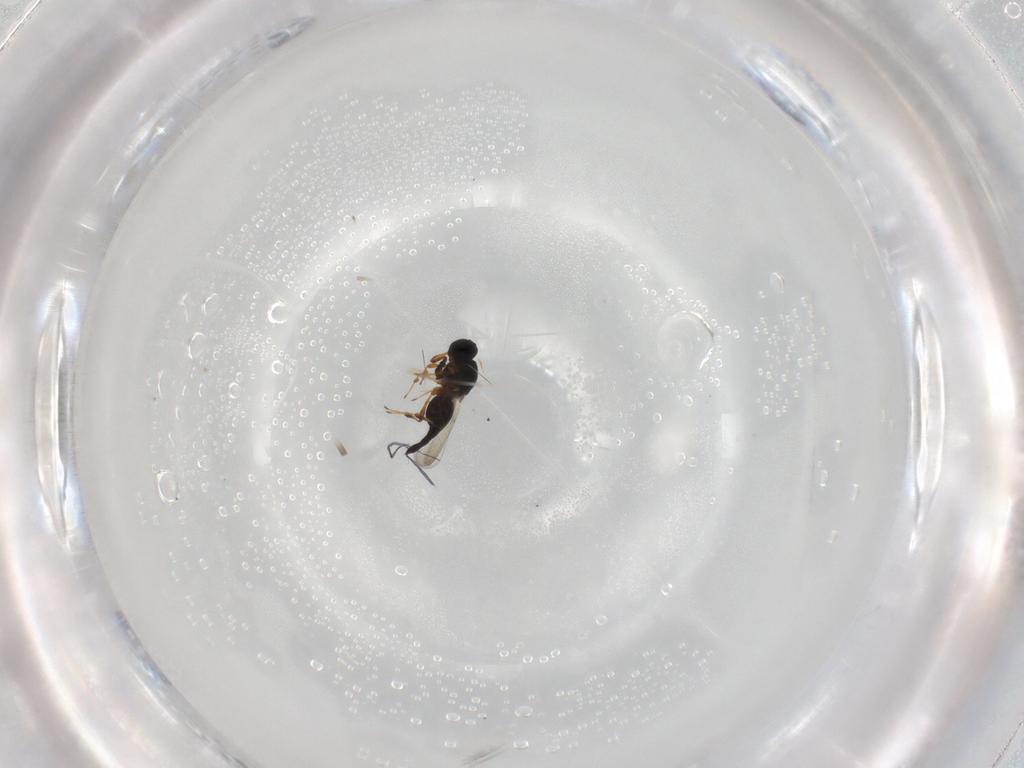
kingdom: Animalia
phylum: Arthropoda
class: Insecta
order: Hymenoptera
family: Platygastridae
